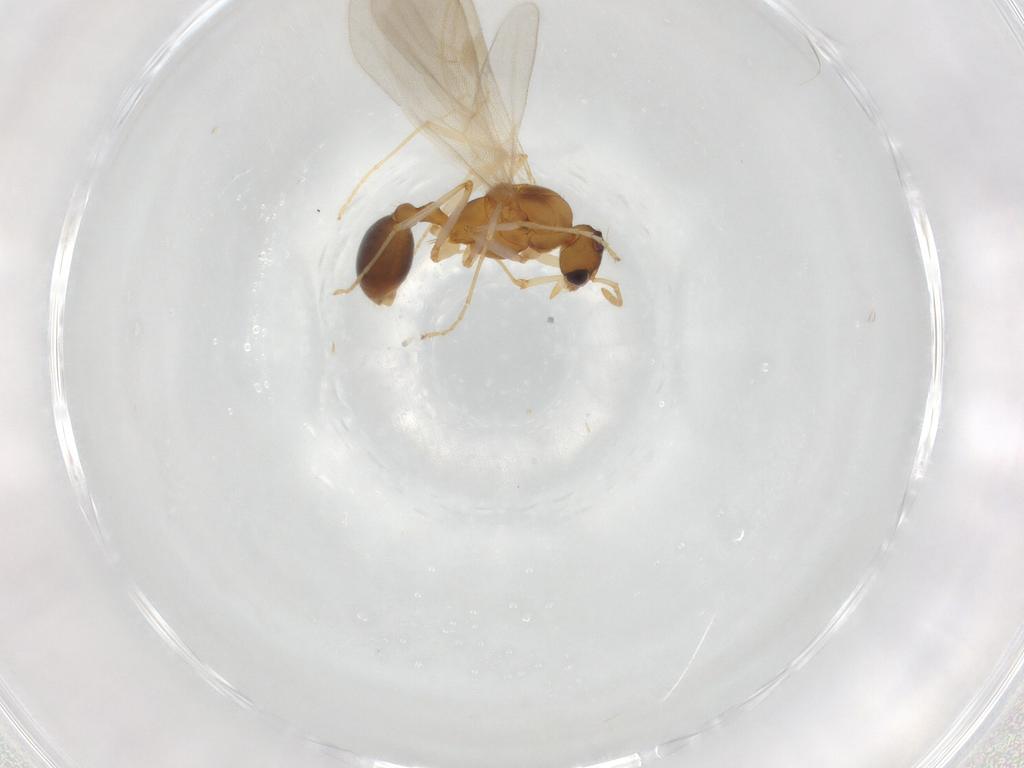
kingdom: Animalia
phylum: Arthropoda
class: Insecta
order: Hymenoptera
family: Formicidae
